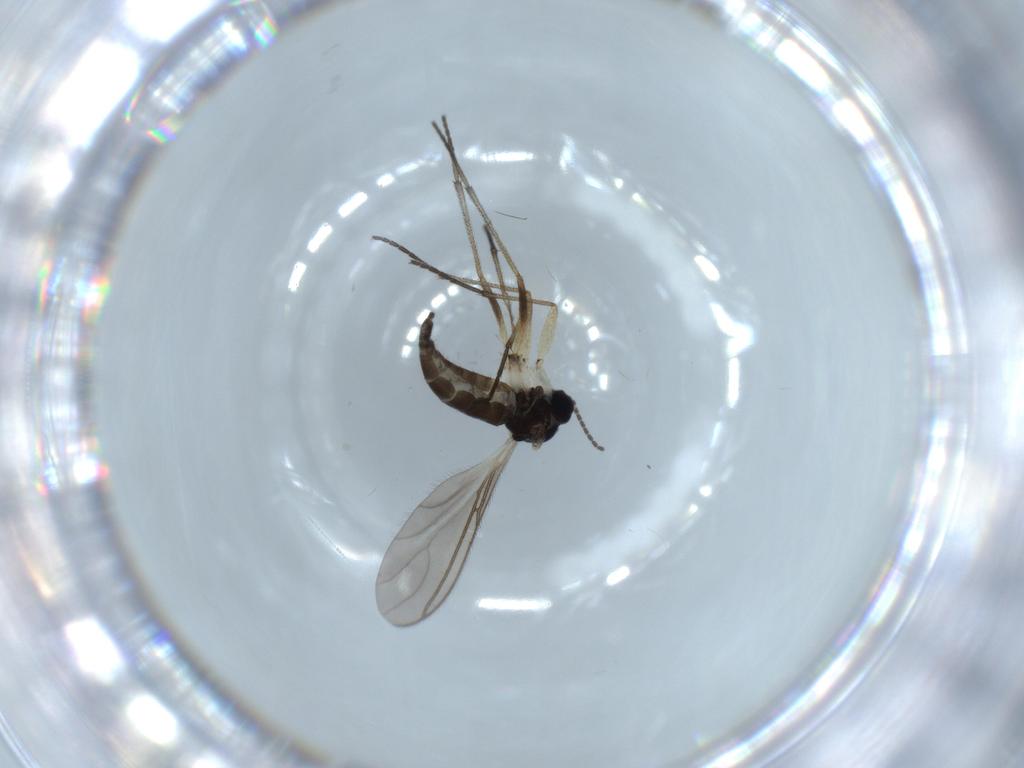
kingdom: Animalia
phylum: Arthropoda
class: Insecta
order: Diptera
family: Sciaridae
